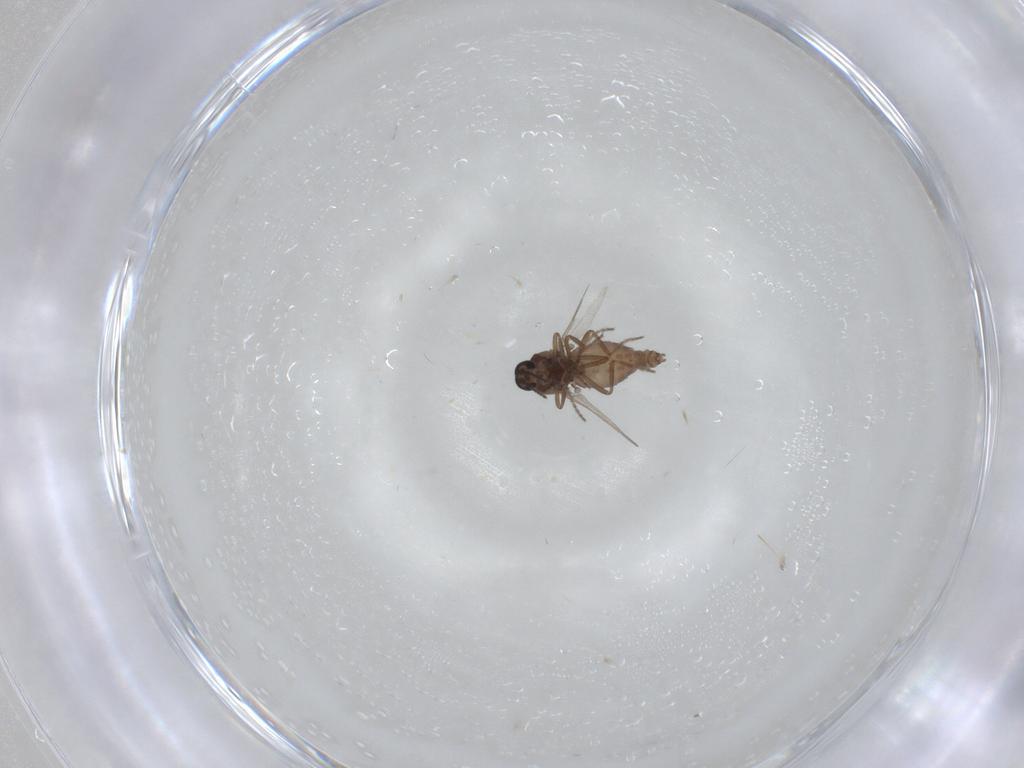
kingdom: Animalia
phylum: Arthropoda
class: Insecta
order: Diptera
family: Ceratopogonidae
